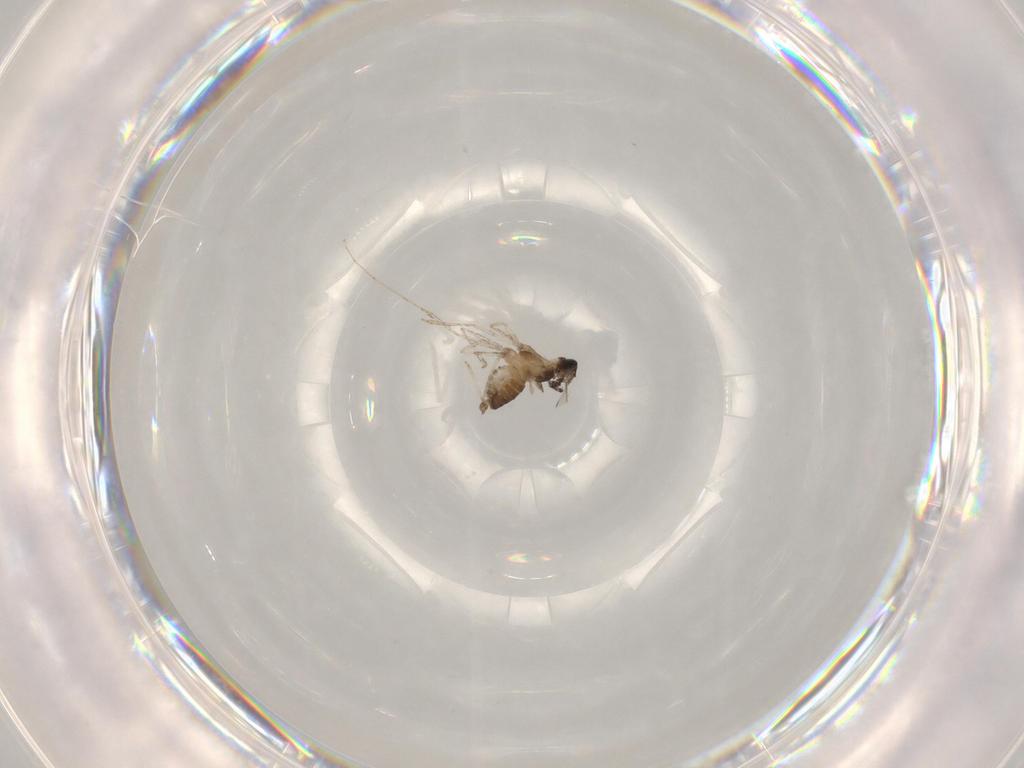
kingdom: Animalia
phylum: Arthropoda
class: Insecta
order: Diptera
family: Cecidomyiidae
